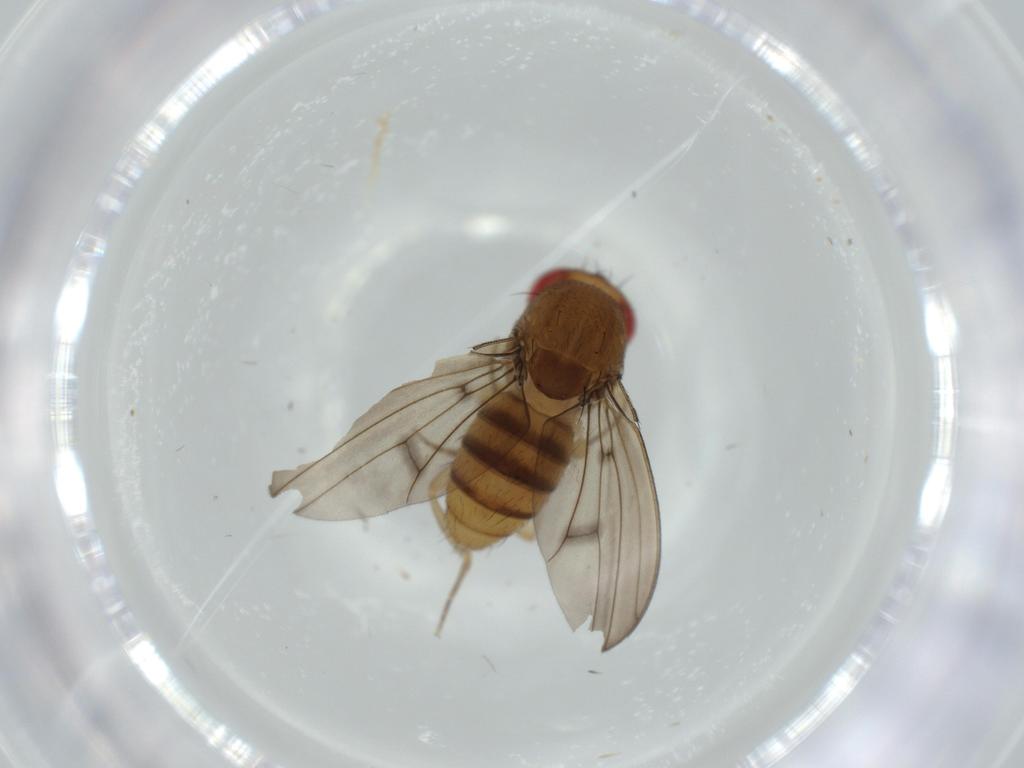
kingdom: Animalia
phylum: Arthropoda
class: Insecta
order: Diptera
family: Drosophilidae
